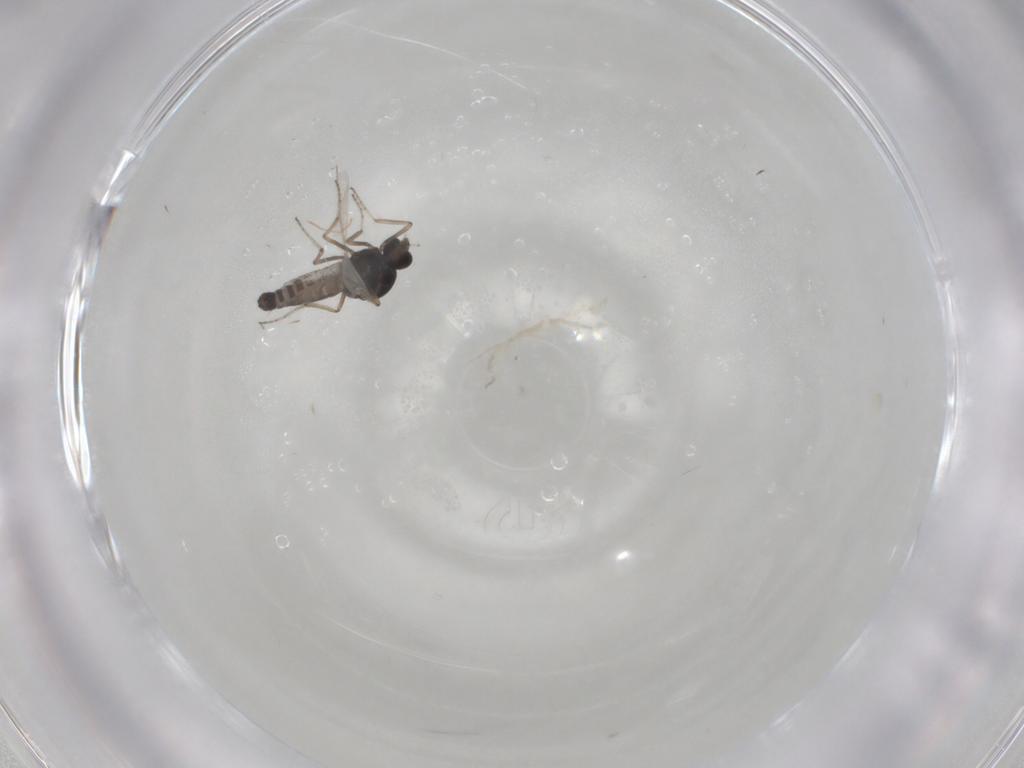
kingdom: Animalia
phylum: Arthropoda
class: Insecta
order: Diptera
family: Ceratopogonidae
